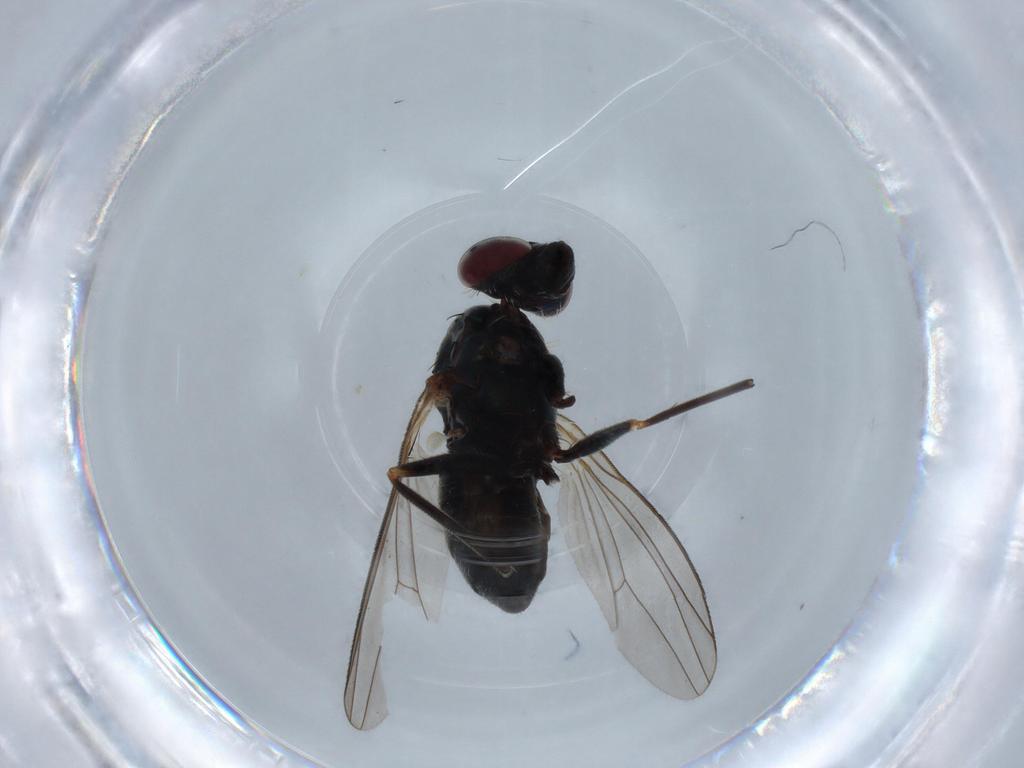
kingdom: Animalia
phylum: Arthropoda
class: Insecta
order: Diptera
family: Dolichopodidae
